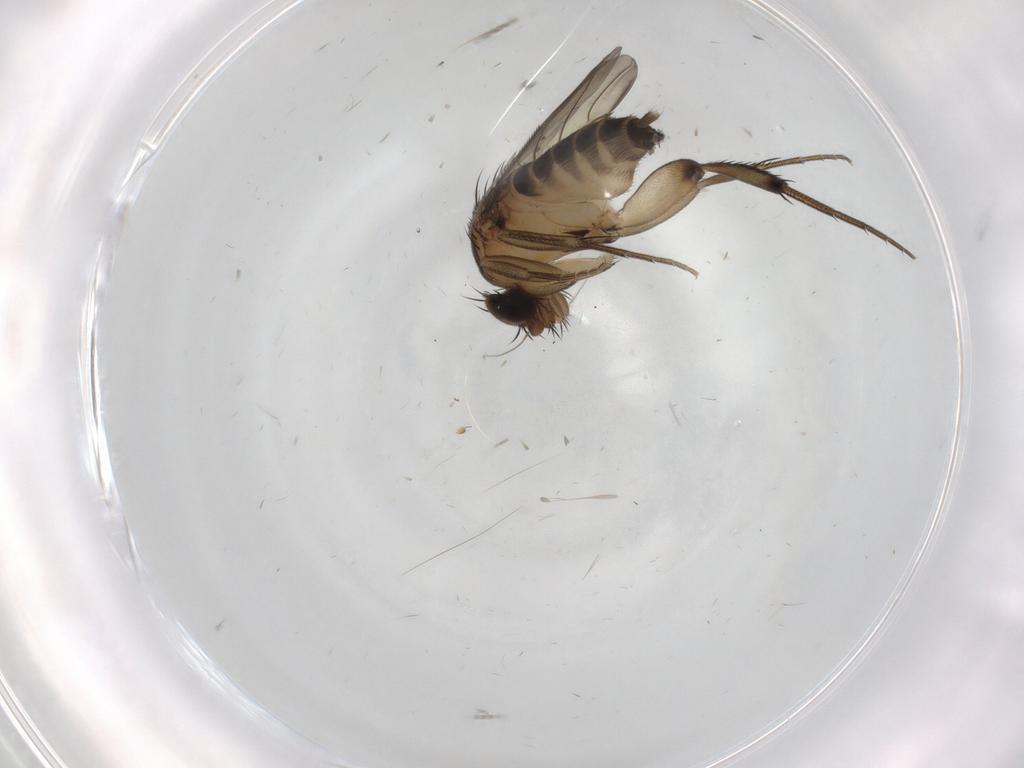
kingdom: Animalia
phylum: Arthropoda
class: Insecta
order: Diptera
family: Phoridae
